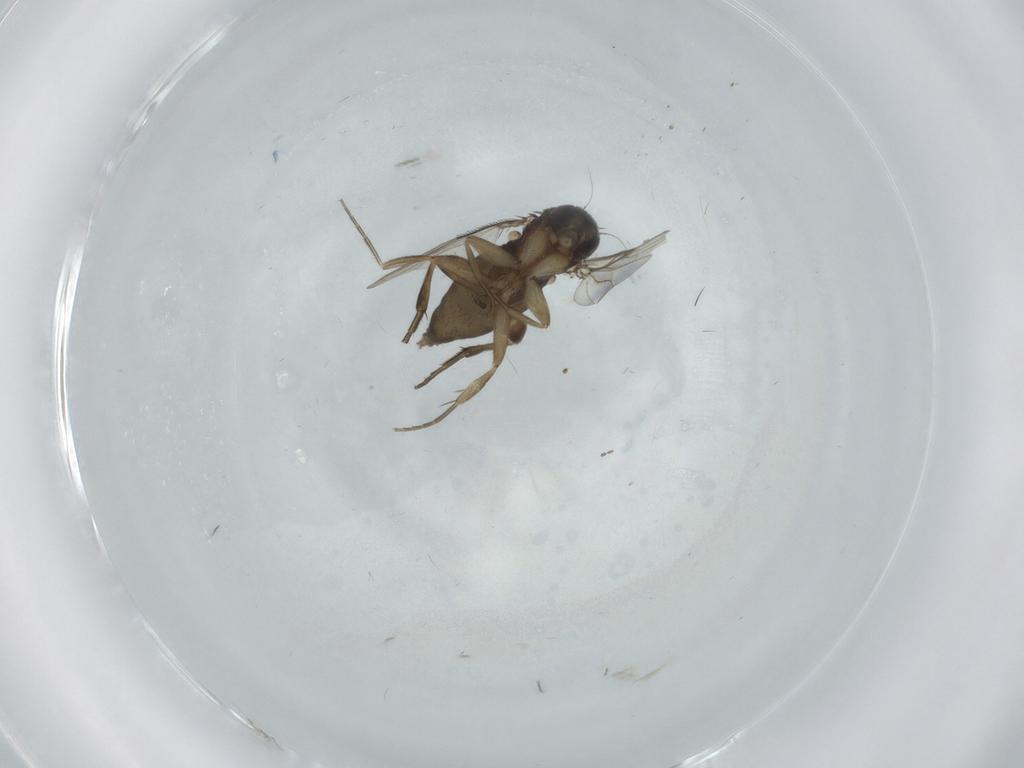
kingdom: Animalia
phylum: Arthropoda
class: Insecta
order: Diptera
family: Phoridae
